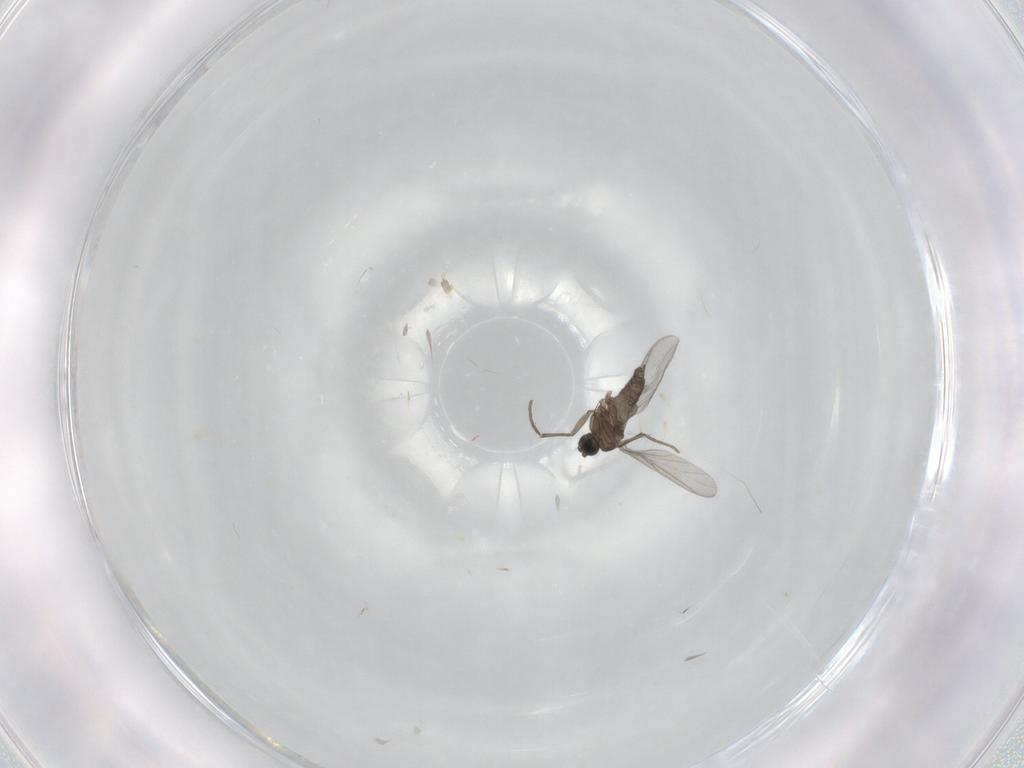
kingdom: Animalia
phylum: Arthropoda
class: Insecta
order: Diptera
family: Sciaridae
